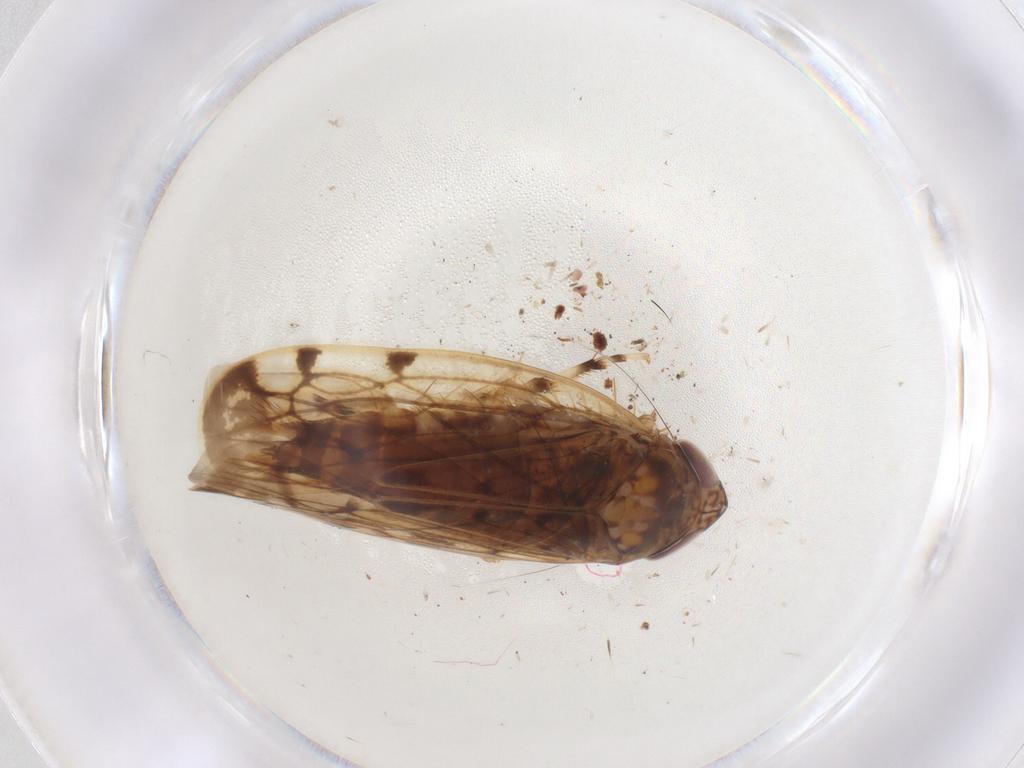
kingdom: Animalia
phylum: Arthropoda
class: Insecta
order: Hemiptera
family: Cicadellidae
